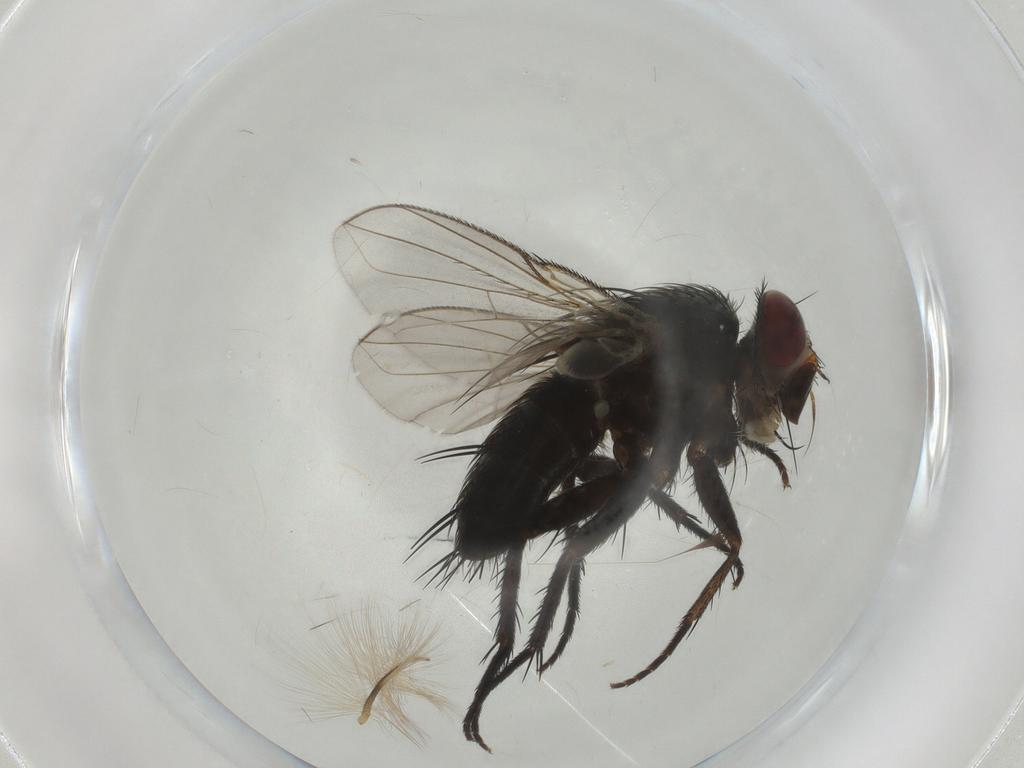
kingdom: Animalia
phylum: Arthropoda
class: Insecta
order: Diptera
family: Tachinidae
